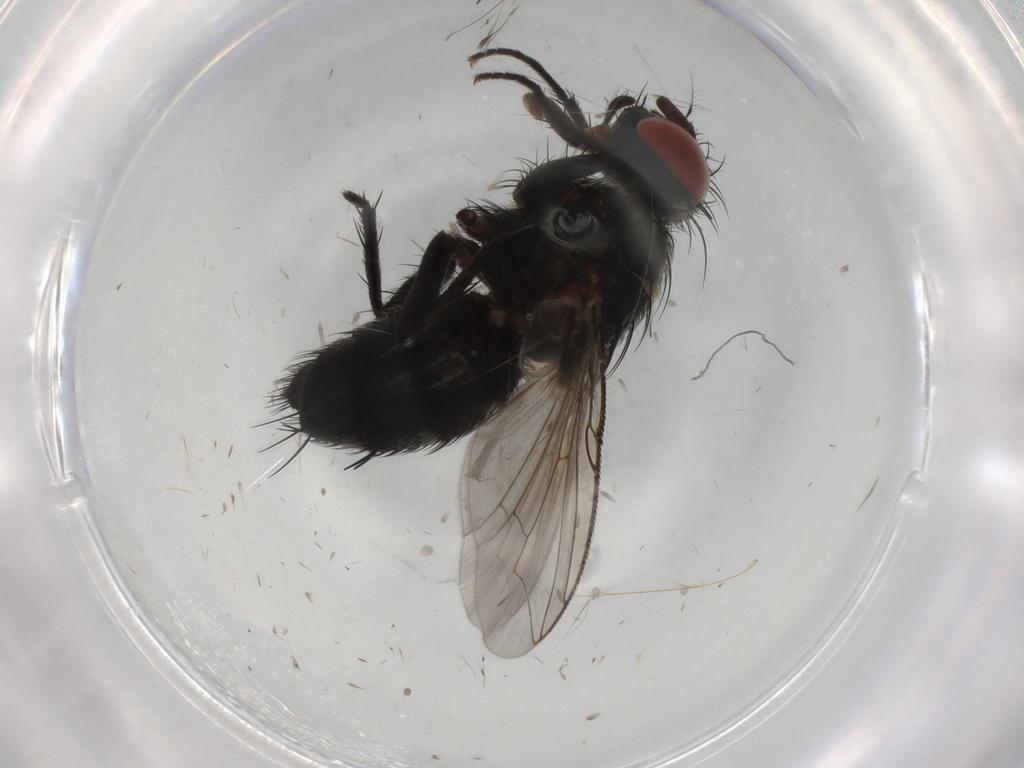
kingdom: Animalia
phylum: Arthropoda
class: Insecta
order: Diptera
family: Sarcophagidae
